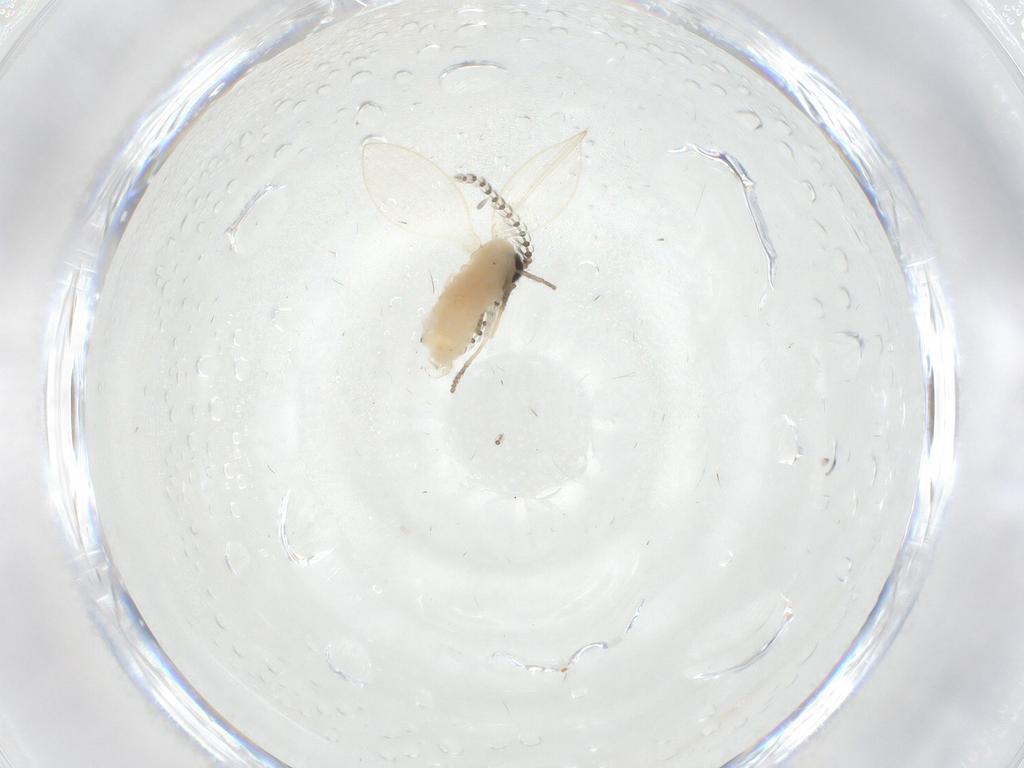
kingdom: Animalia
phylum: Arthropoda
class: Insecta
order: Diptera
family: Psychodidae
